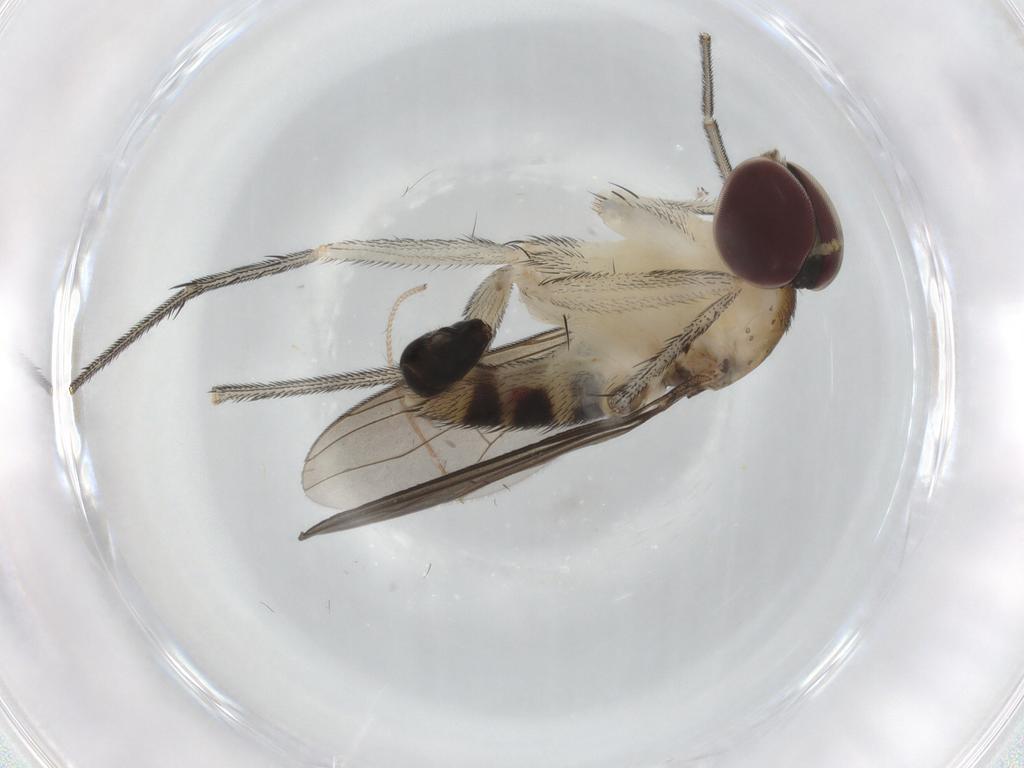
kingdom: Animalia
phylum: Arthropoda
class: Insecta
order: Diptera
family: Dolichopodidae
